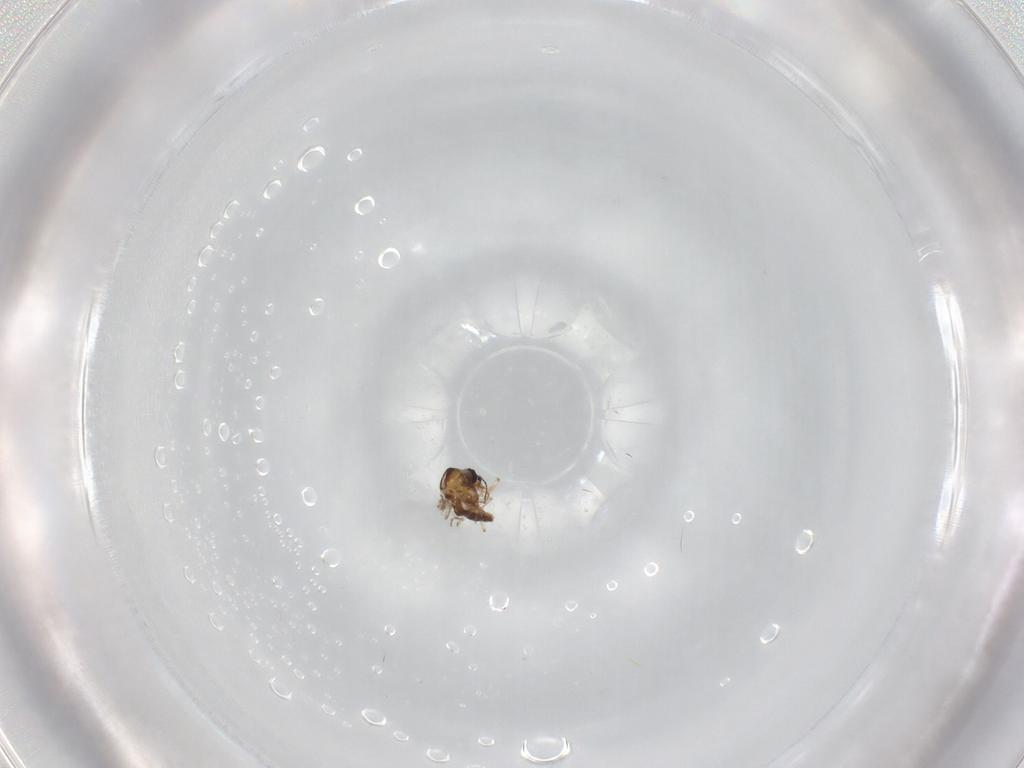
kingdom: Animalia
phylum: Arthropoda
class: Insecta
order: Diptera
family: Ceratopogonidae
